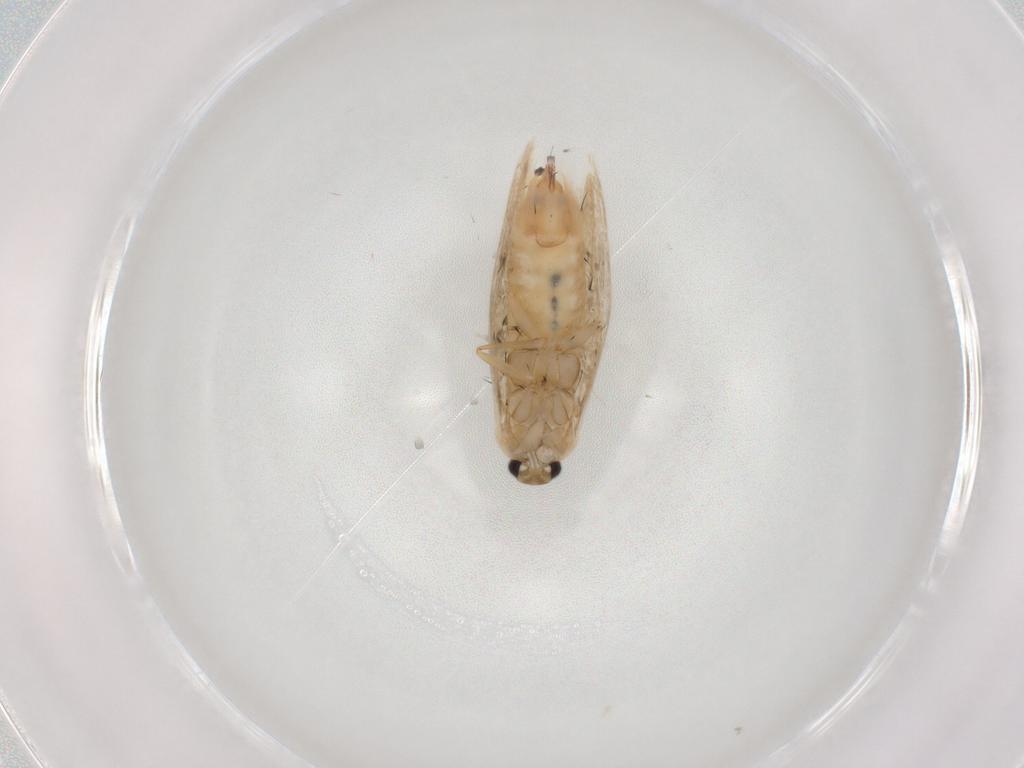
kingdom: Animalia
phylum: Arthropoda
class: Insecta
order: Lepidoptera
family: Bucculatricidae
